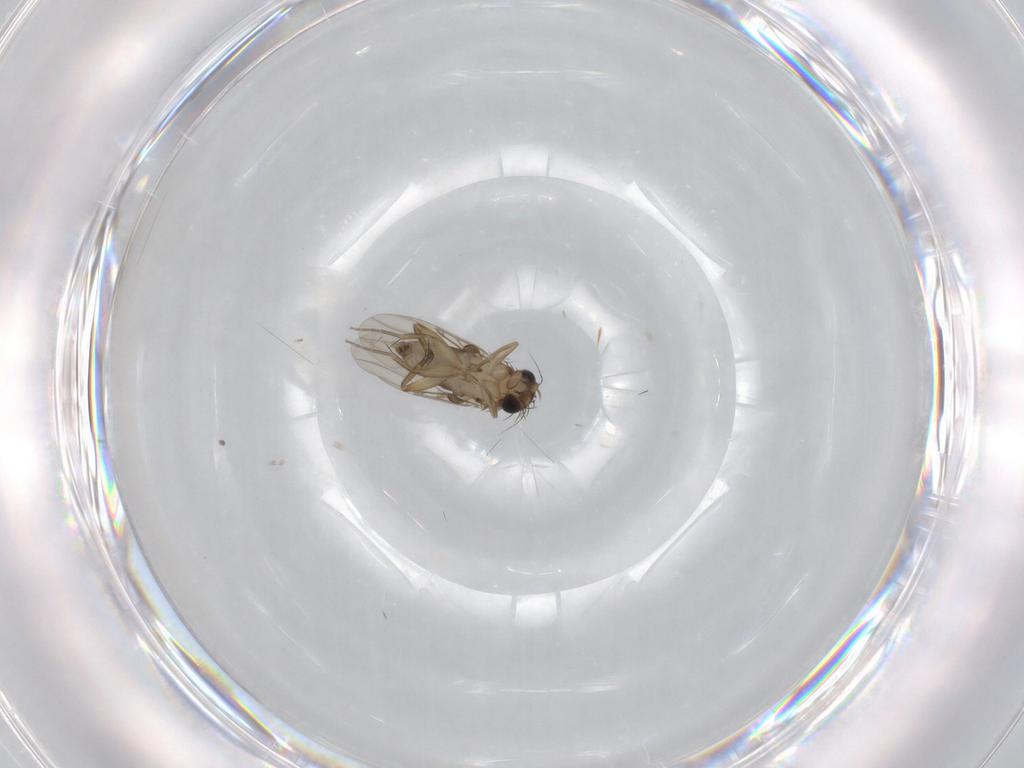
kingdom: Animalia
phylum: Arthropoda
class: Insecta
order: Diptera
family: Phoridae
